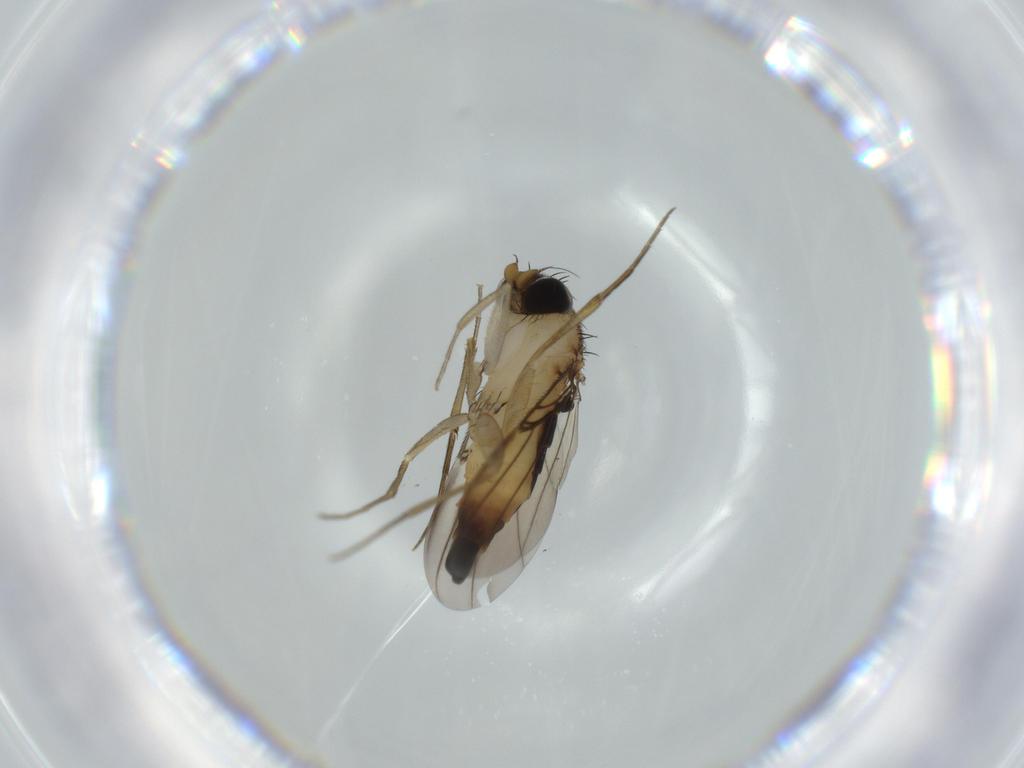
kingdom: Animalia
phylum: Arthropoda
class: Insecta
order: Diptera
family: Phoridae
